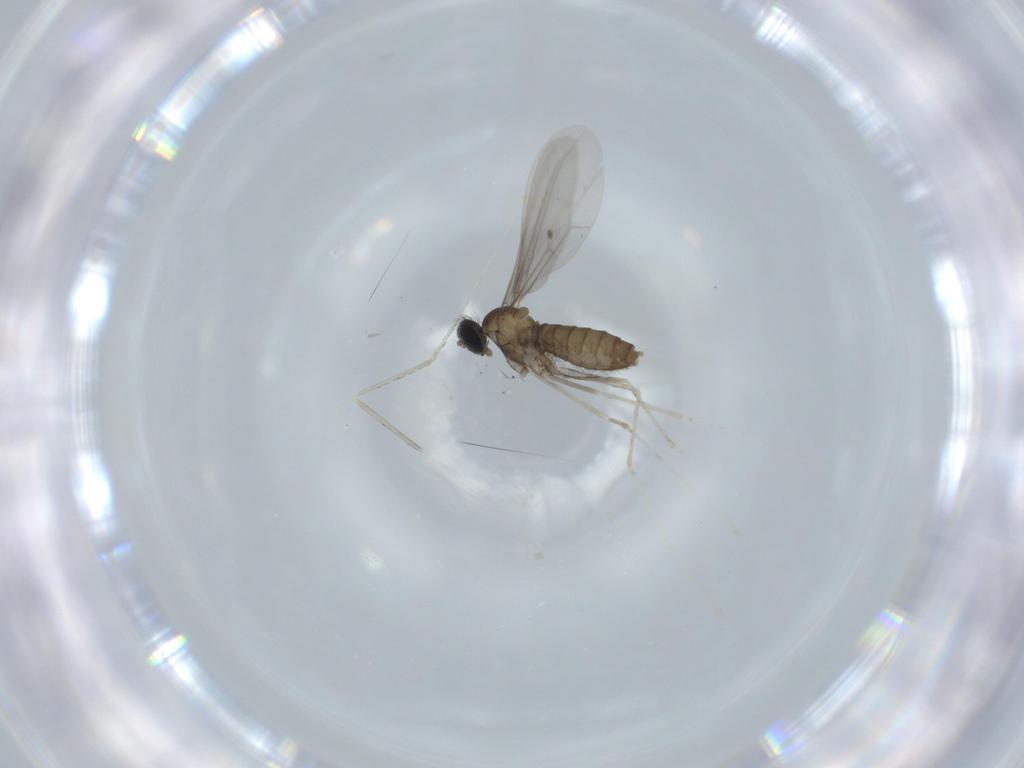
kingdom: Animalia
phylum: Arthropoda
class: Insecta
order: Diptera
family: Cecidomyiidae
